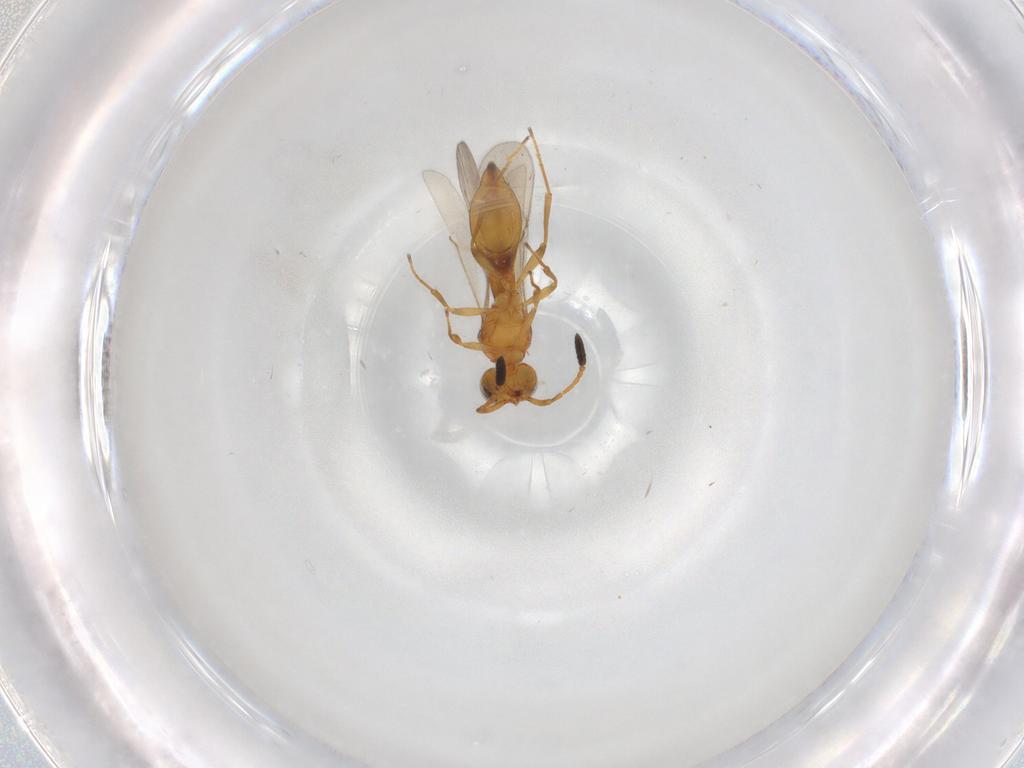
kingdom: Animalia
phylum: Arthropoda
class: Insecta
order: Hymenoptera
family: Scelionidae
